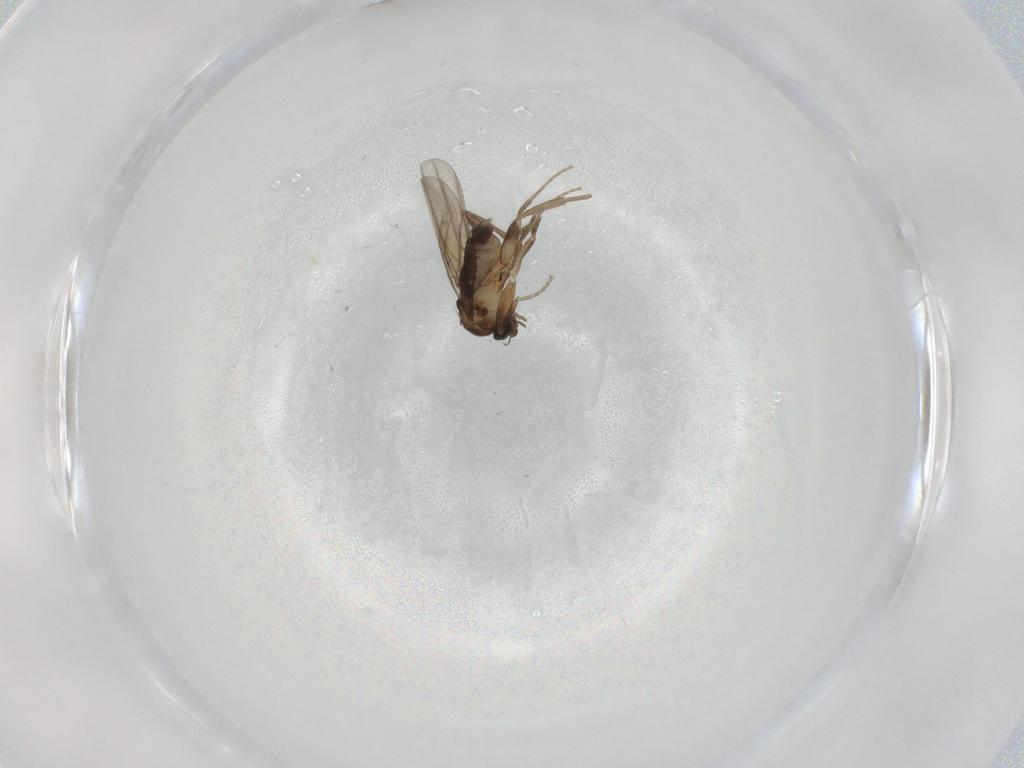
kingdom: Animalia
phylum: Arthropoda
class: Insecta
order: Diptera
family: Phoridae
